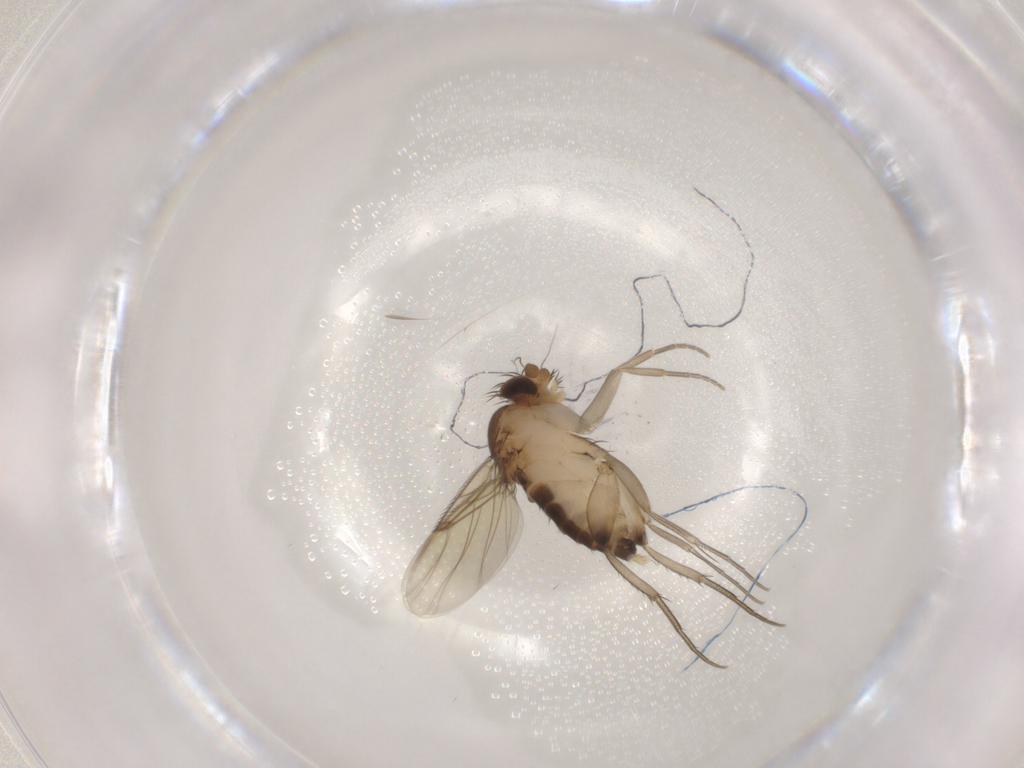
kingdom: Animalia
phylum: Arthropoda
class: Insecta
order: Diptera
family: Phoridae
